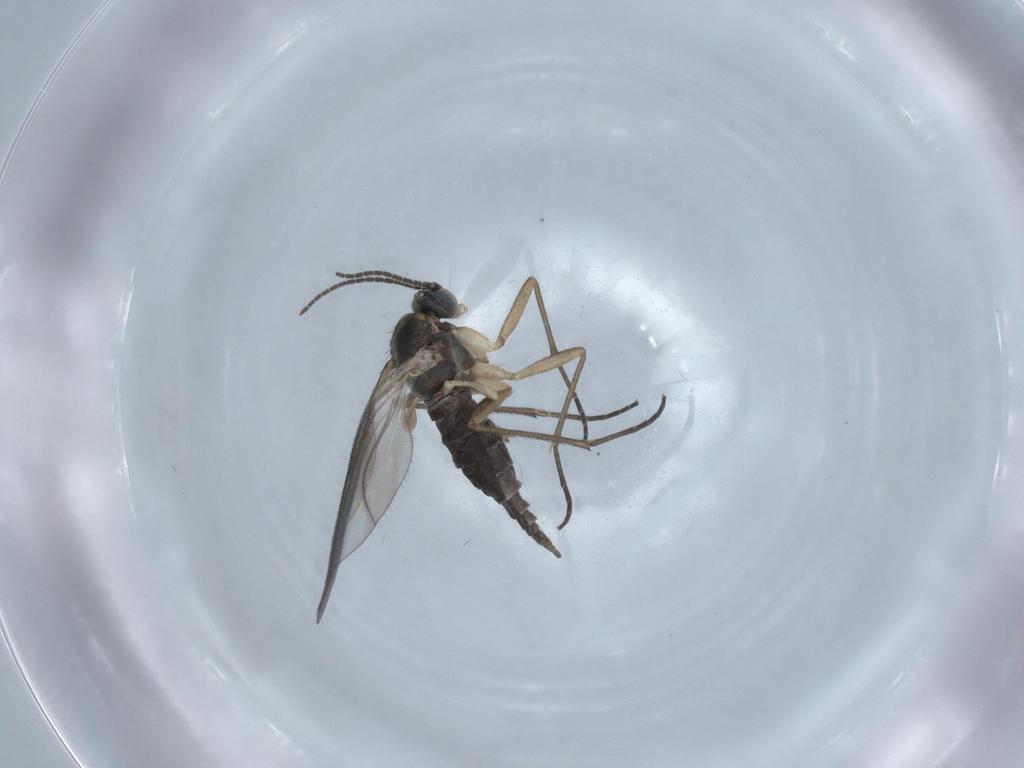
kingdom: Animalia
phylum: Arthropoda
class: Insecta
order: Diptera
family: Sciaridae
